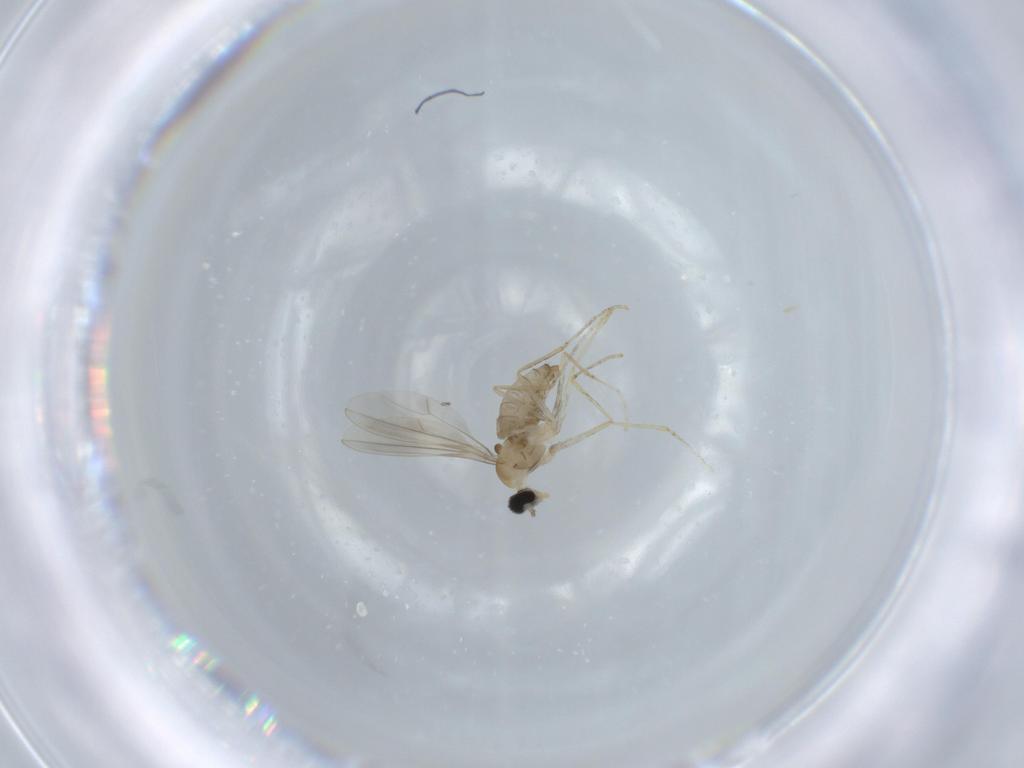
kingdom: Animalia
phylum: Arthropoda
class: Insecta
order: Diptera
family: Cecidomyiidae
